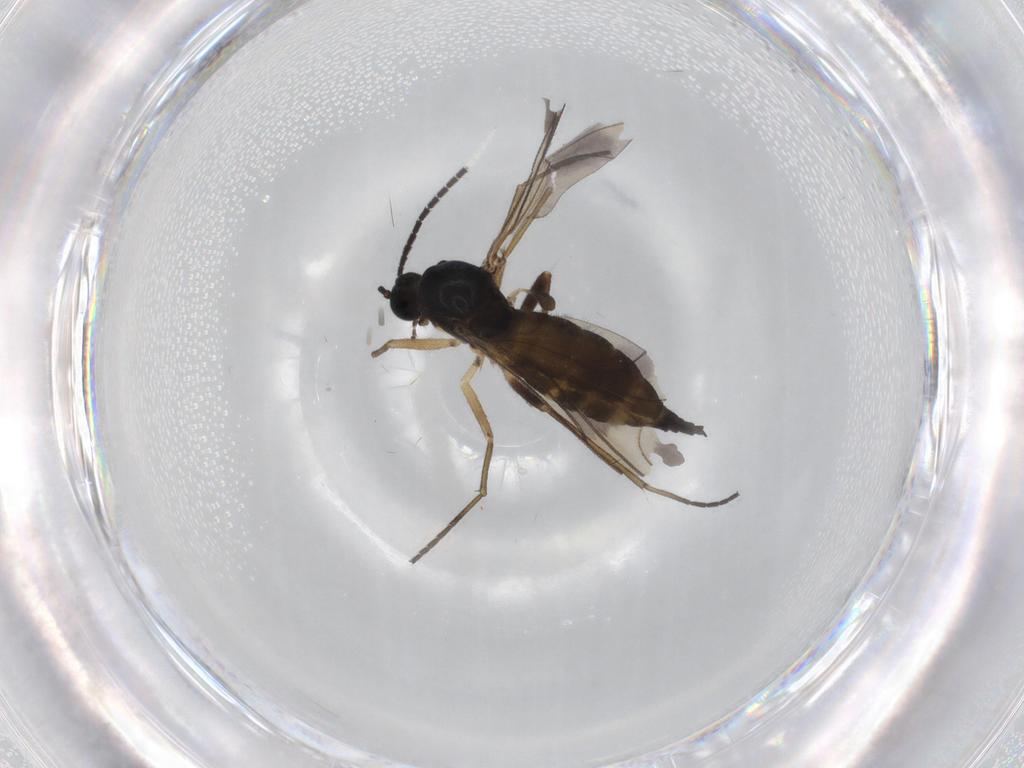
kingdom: Animalia
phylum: Arthropoda
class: Insecta
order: Diptera
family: Sciaridae
